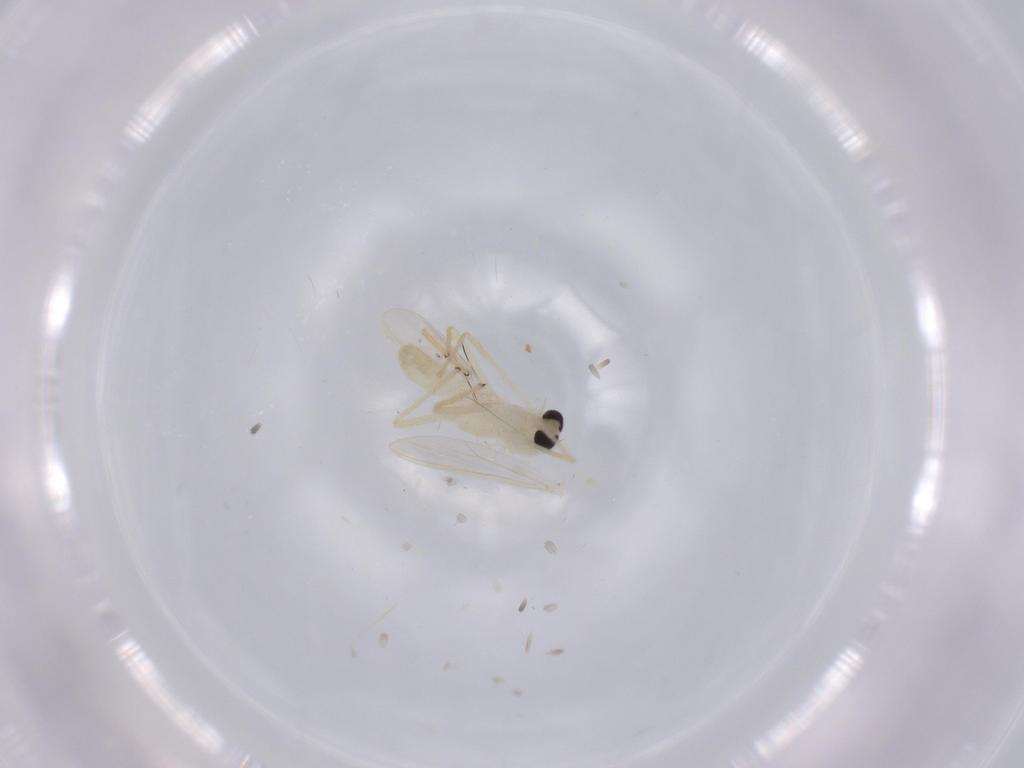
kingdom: Animalia
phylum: Arthropoda
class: Insecta
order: Diptera
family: Chironomidae
